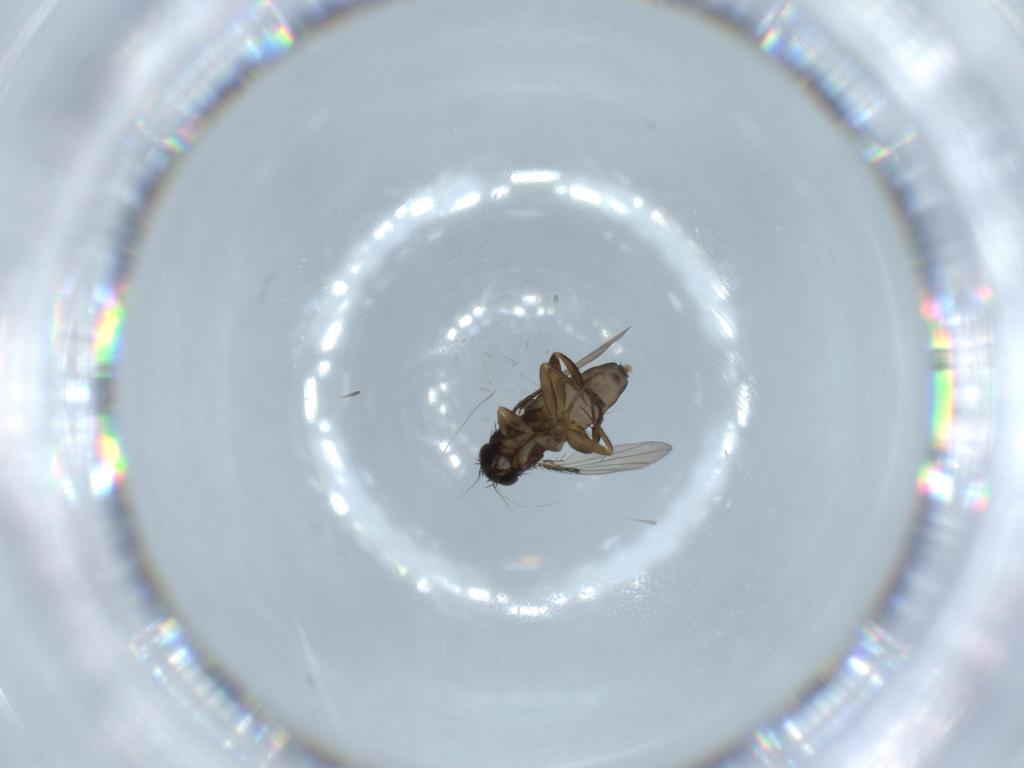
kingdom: Animalia
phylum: Arthropoda
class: Insecta
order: Diptera
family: Phoridae
